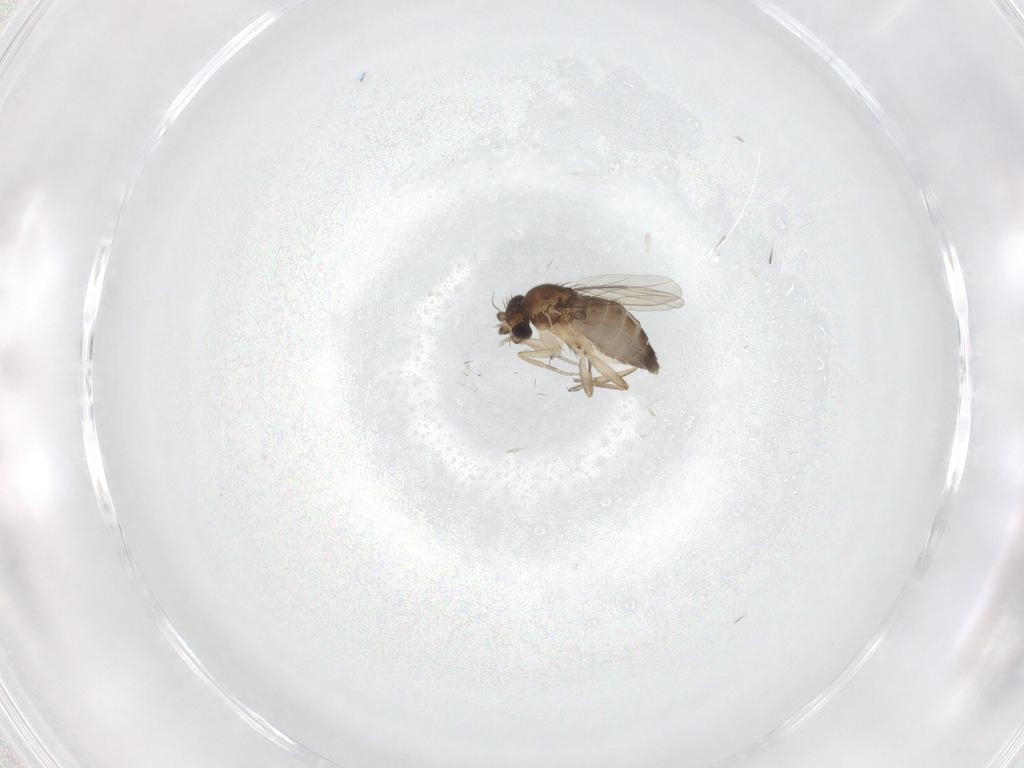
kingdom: Animalia
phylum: Arthropoda
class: Insecta
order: Diptera
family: Phoridae
